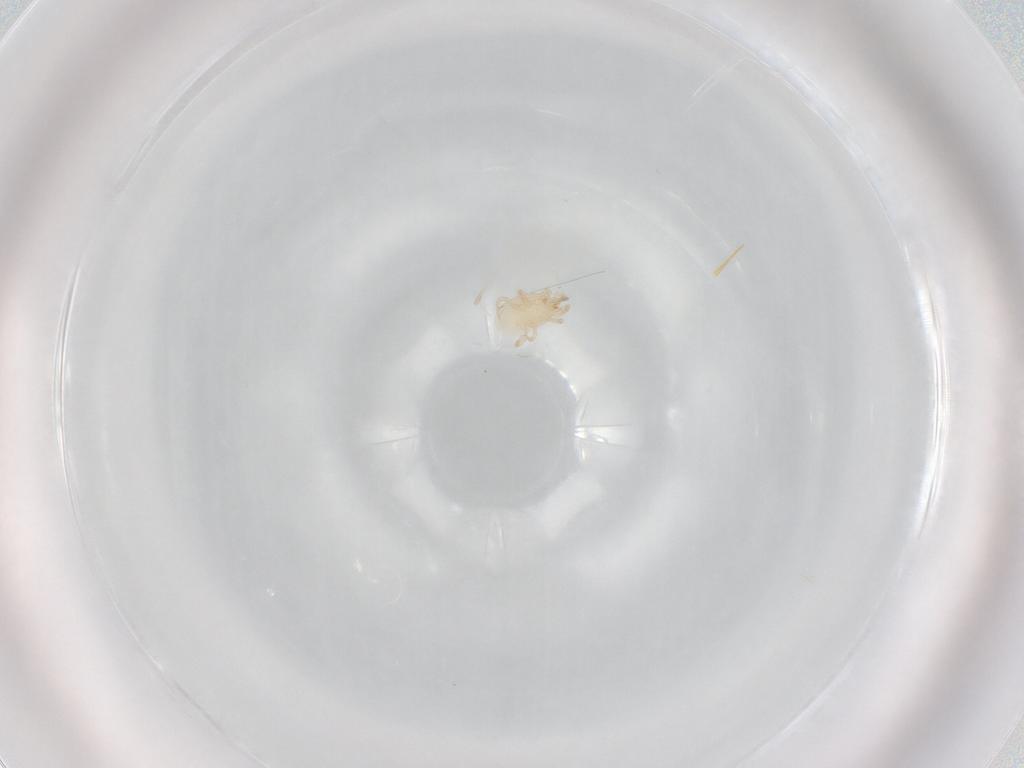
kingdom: Animalia
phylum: Arthropoda
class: Arachnida
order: Mesostigmata
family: Melicharidae
